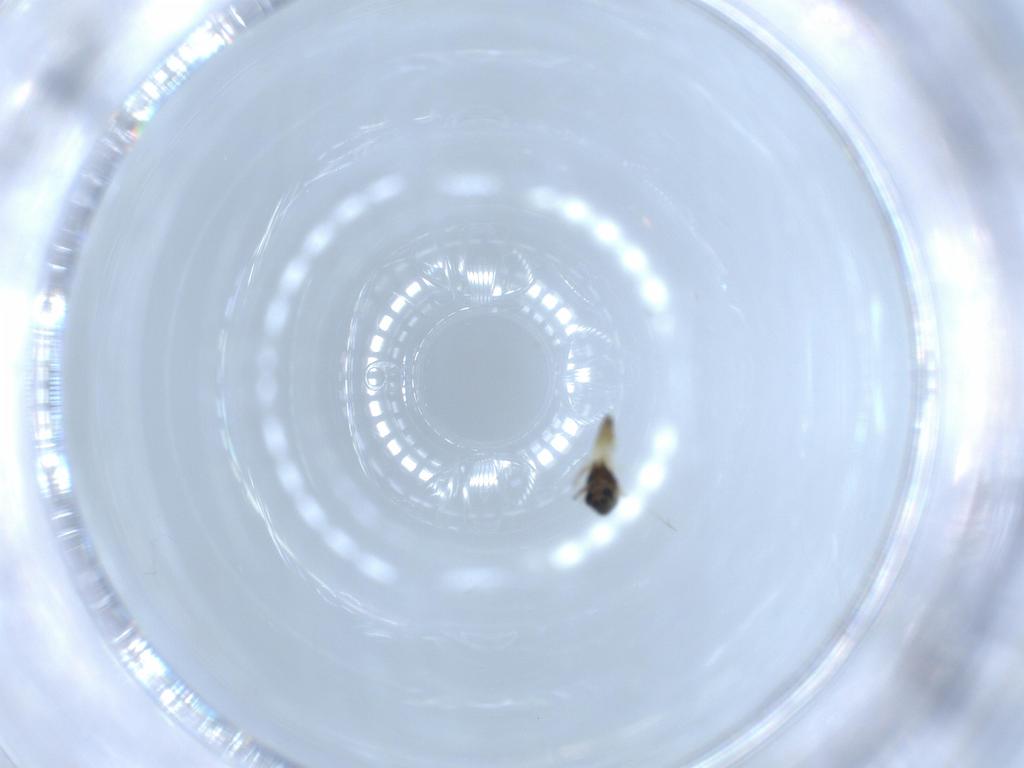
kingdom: Animalia
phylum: Arthropoda
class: Insecta
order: Diptera
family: Chironomidae
